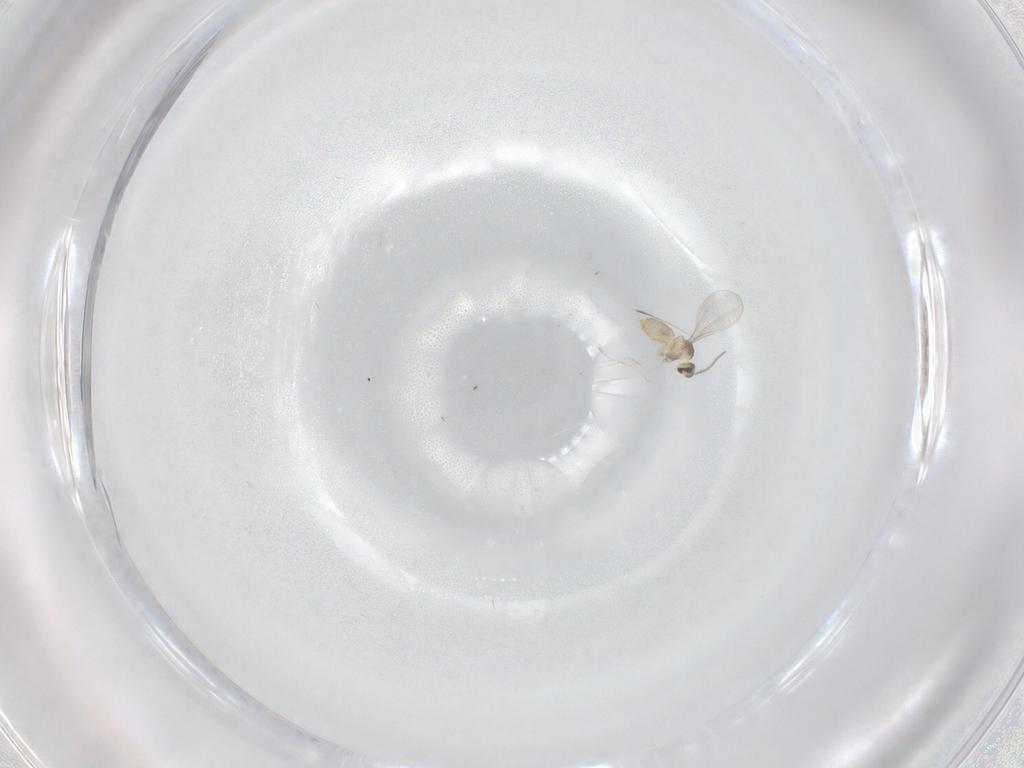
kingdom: Animalia
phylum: Arthropoda
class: Insecta
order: Diptera
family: Cecidomyiidae
